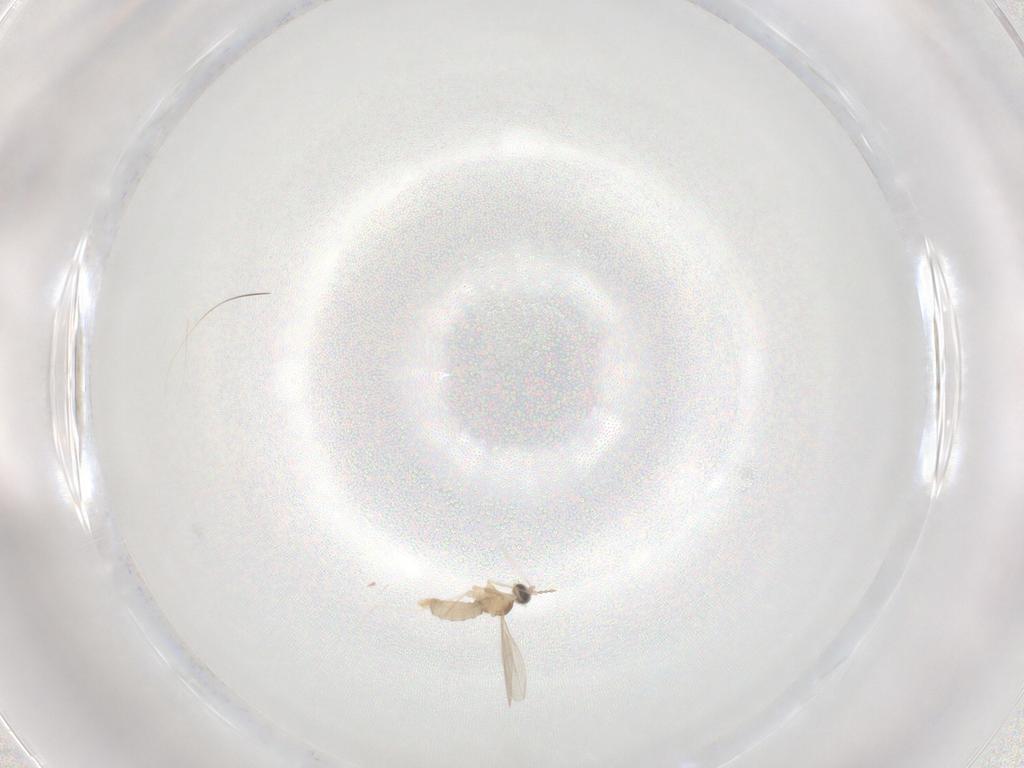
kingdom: Animalia
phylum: Arthropoda
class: Insecta
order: Diptera
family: Cecidomyiidae
